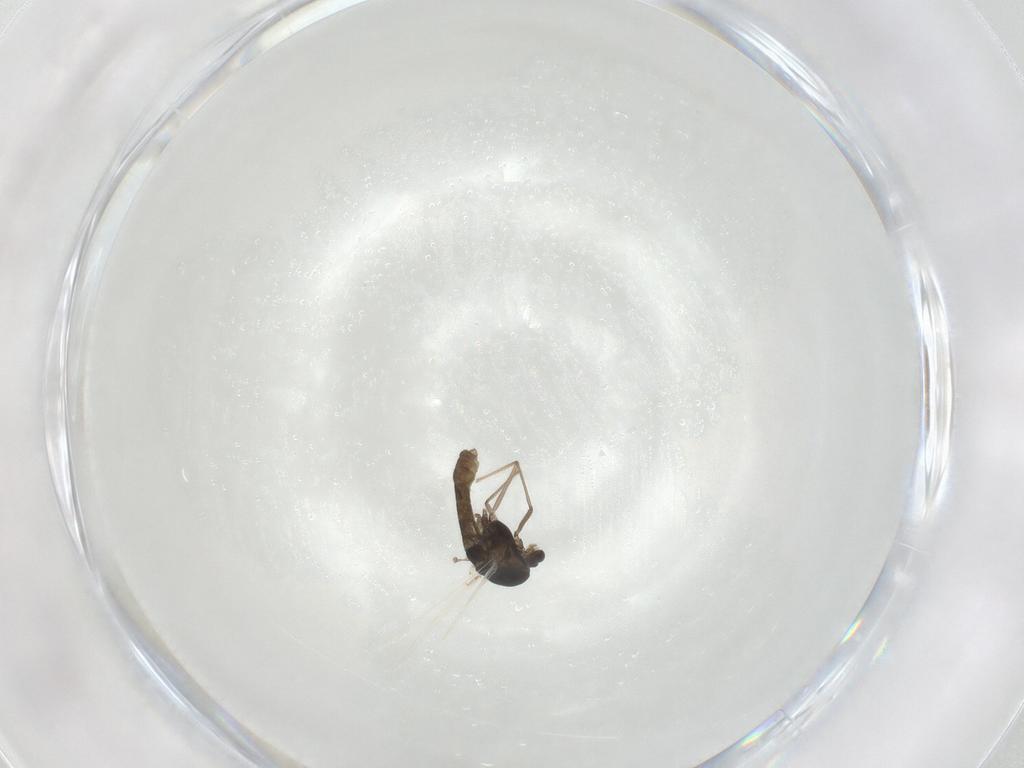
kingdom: Animalia
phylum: Arthropoda
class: Insecta
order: Diptera
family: Chironomidae
